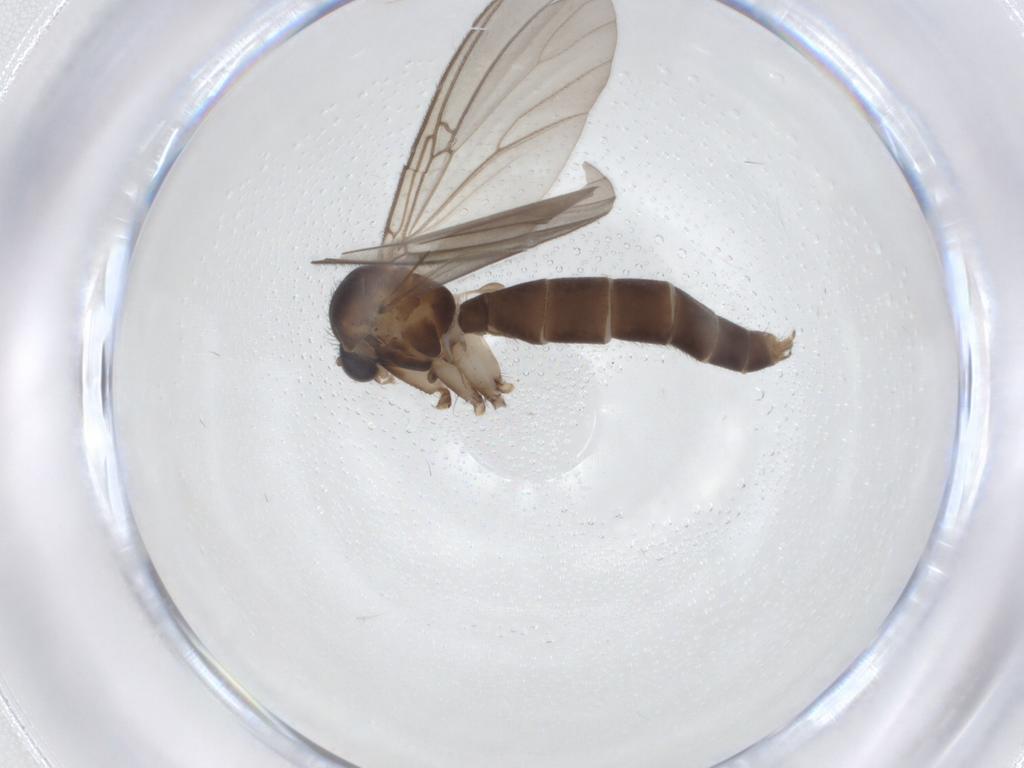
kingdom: Animalia
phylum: Arthropoda
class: Insecta
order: Diptera
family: Mycetophilidae
